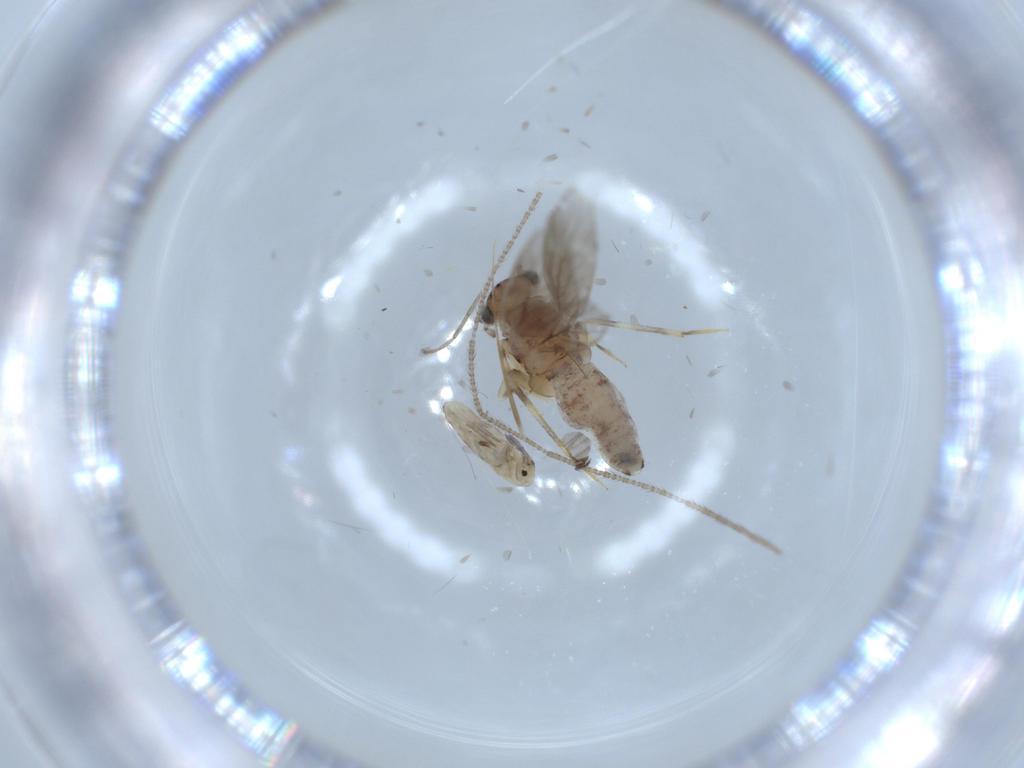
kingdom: Animalia
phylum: Arthropoda
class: Insecta
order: Psocodea
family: Lepidopsocidae
